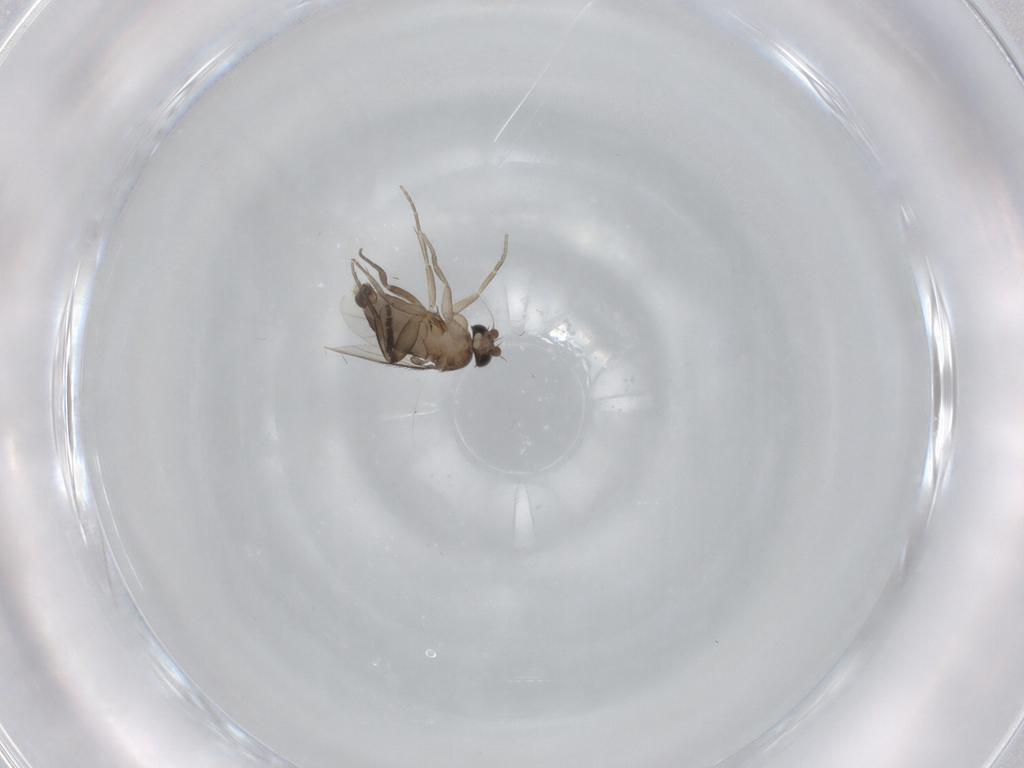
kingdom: Animalia
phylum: Arthropoda
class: Insecta
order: Diptera
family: Phoridae
